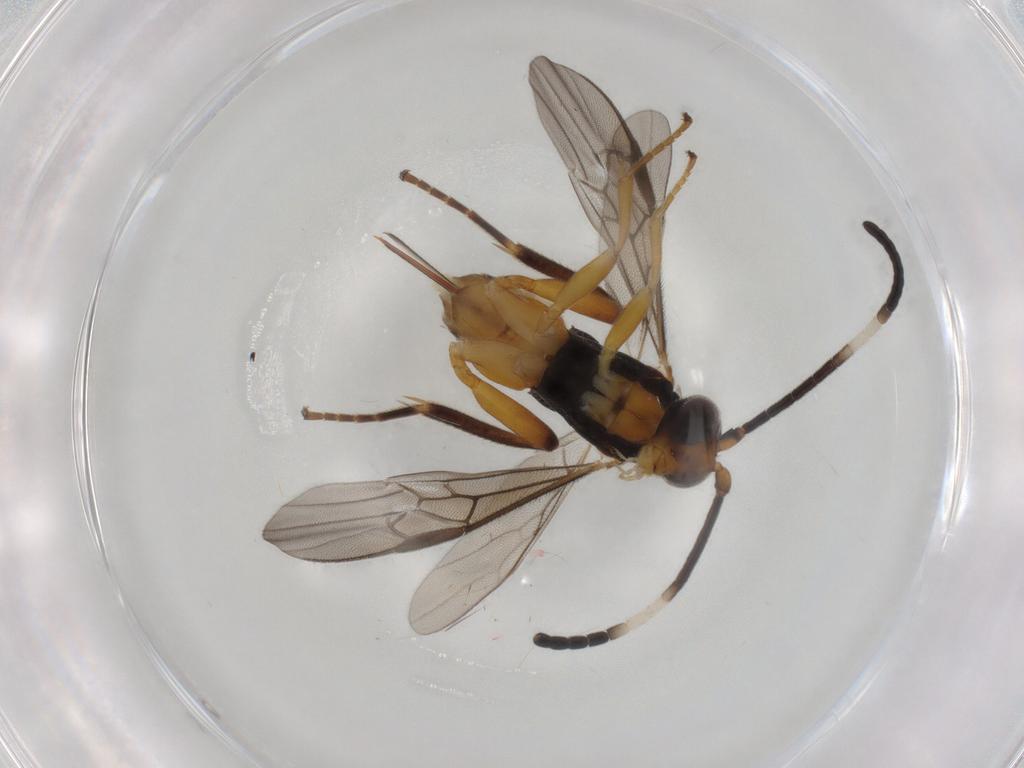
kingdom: Animalia
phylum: Arthropoda
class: Insecta
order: Hymenoptera
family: Braconidae
